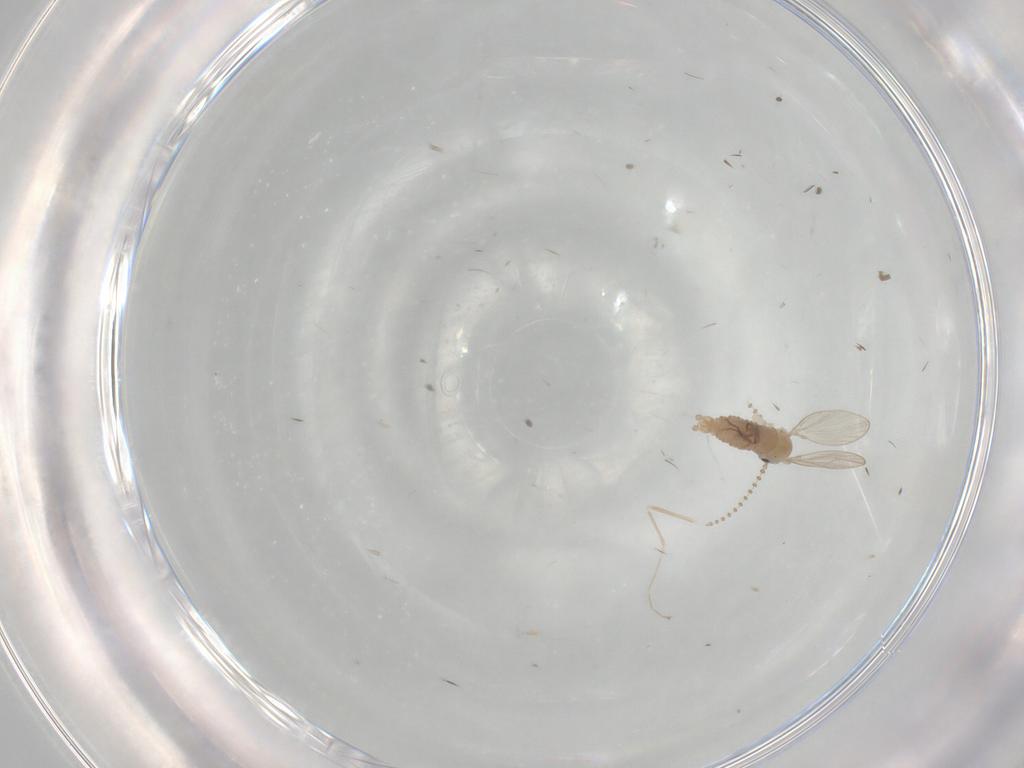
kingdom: Animalia
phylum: Arthropoda
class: Insecta
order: Diptera
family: Psychodidae
